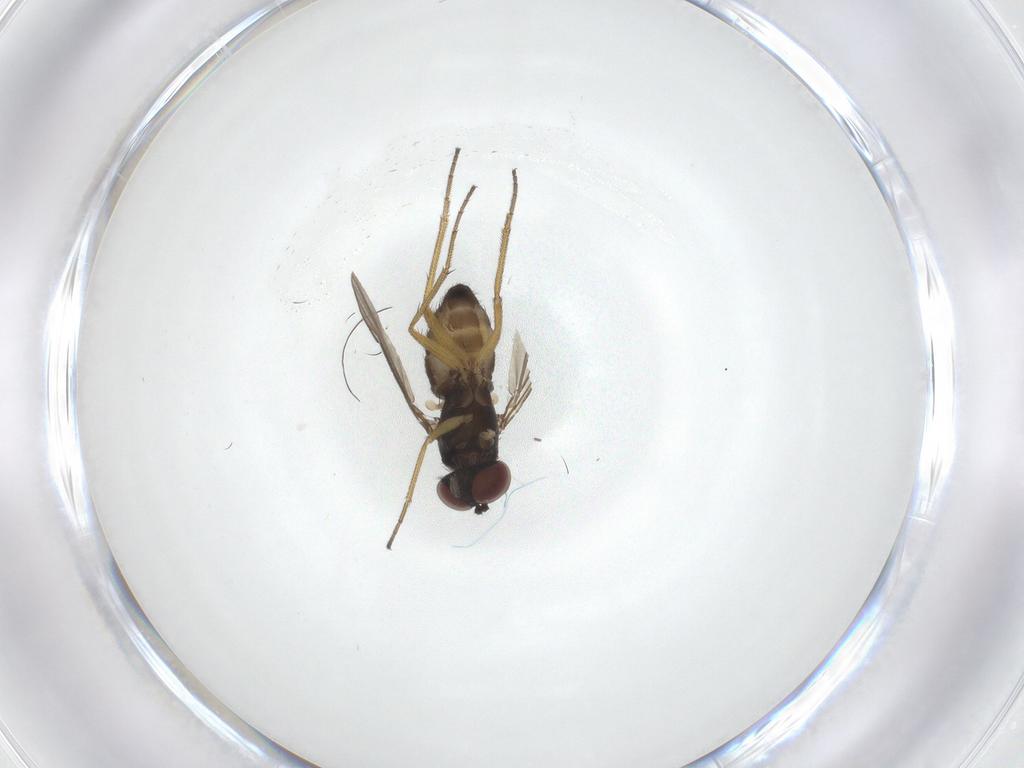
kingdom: Animalia
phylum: Arthropoda
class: Insecta
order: Diptera
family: Dolichopodidae
